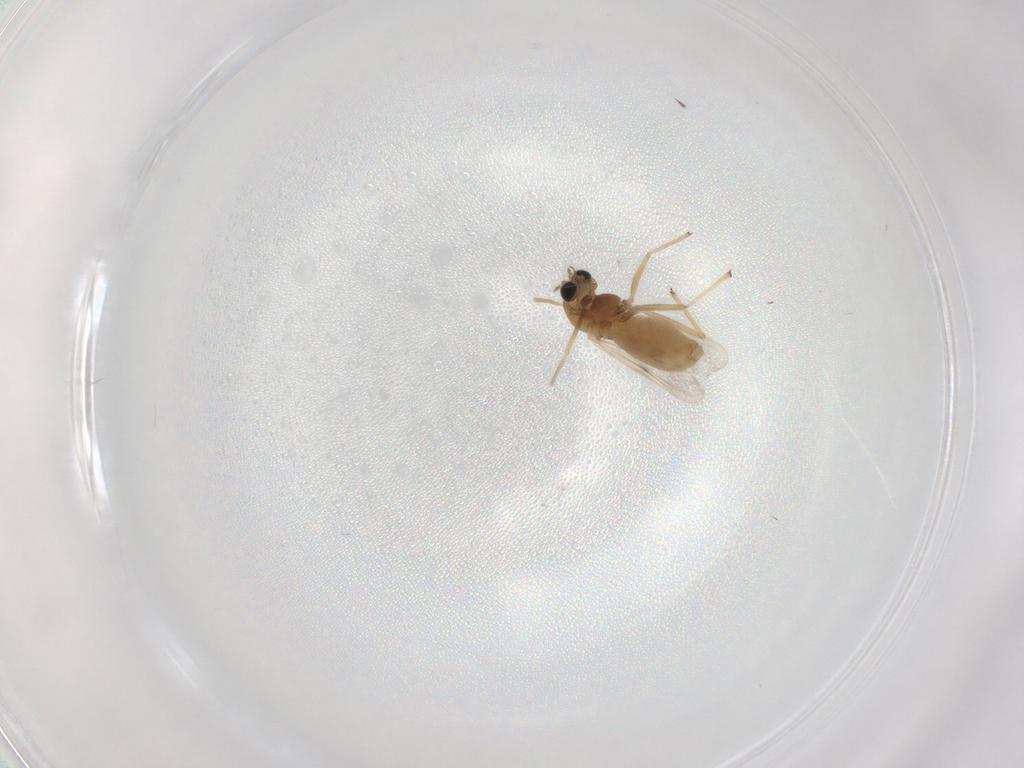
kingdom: Animalia
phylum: Arthropoda
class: Insecta
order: Diptera
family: Chironomidae
